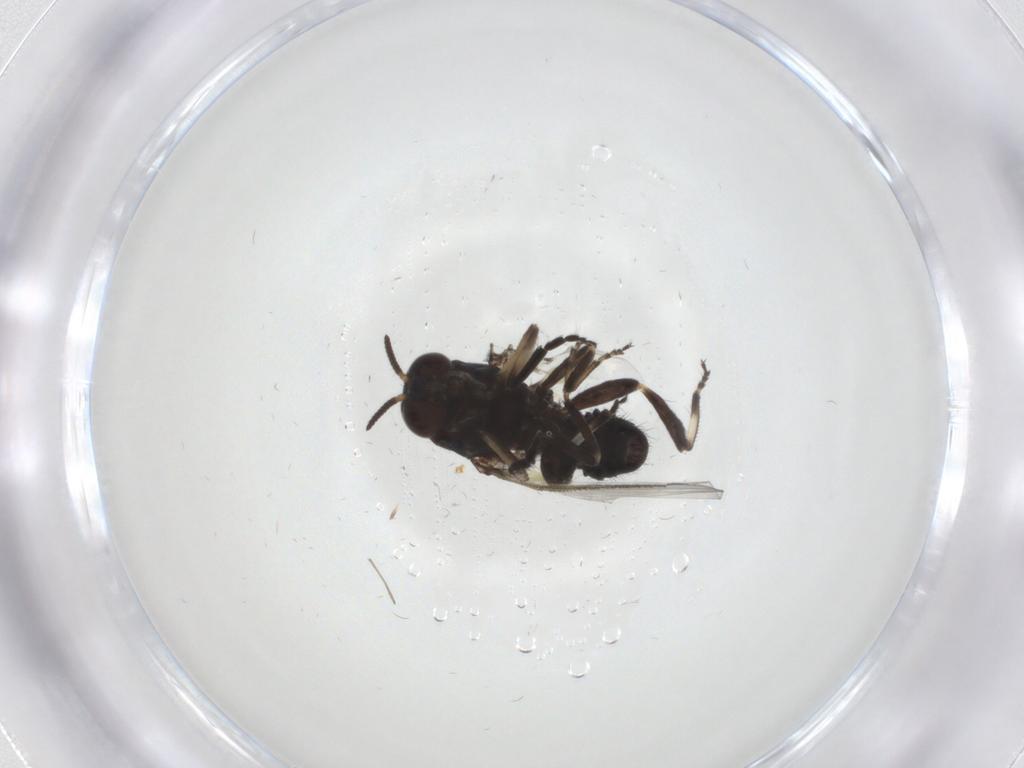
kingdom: Animalia
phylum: Arthropoda
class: Insecta
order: Diptera
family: Simuliidae
